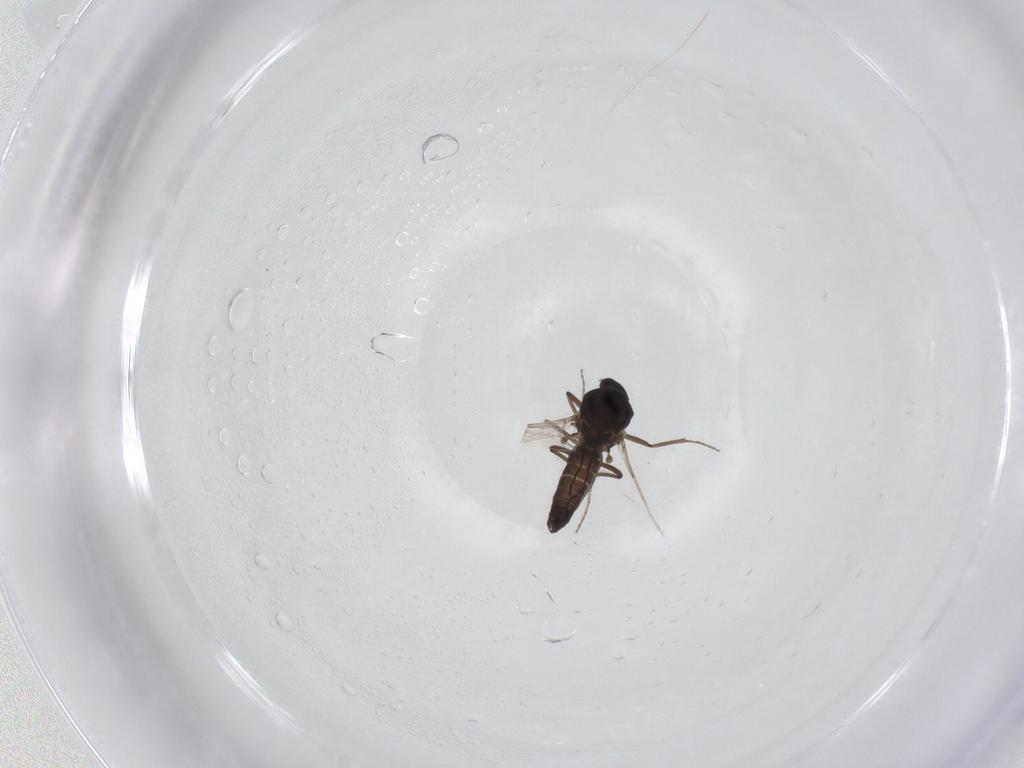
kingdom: Animalia
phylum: Arthropoda
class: Insecta
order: Diptera
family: Ceratopogonidae
